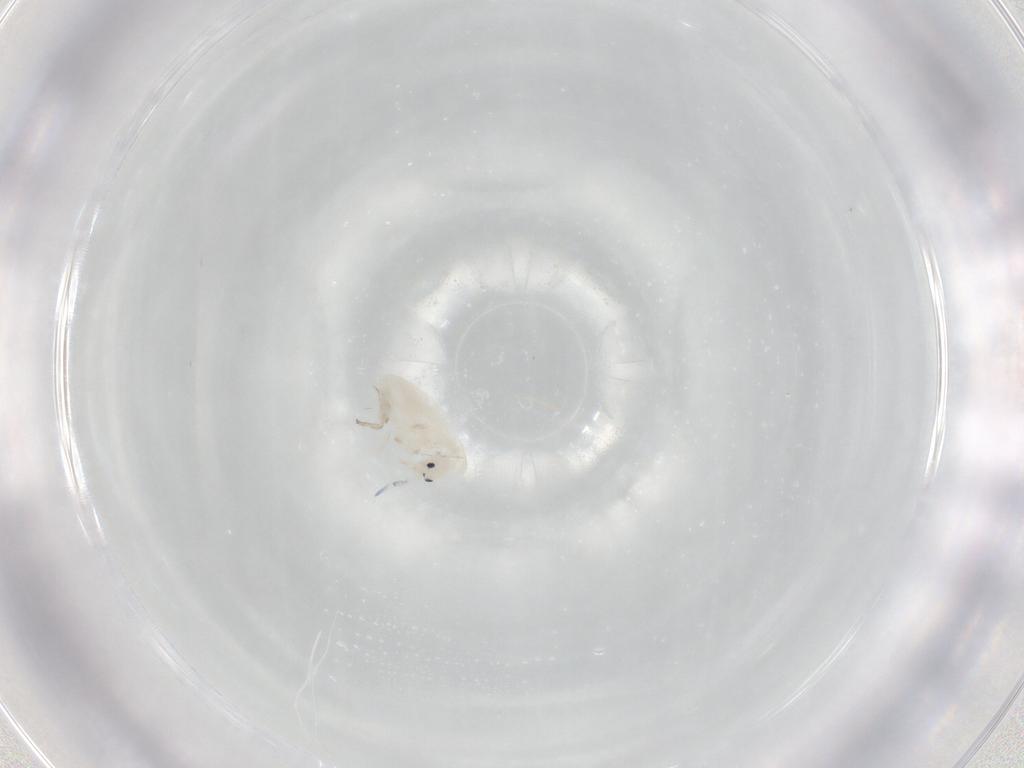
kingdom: Animalia
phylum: Arthropoda
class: Collembola
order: Entomobryomorpha
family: Entomobryidae
